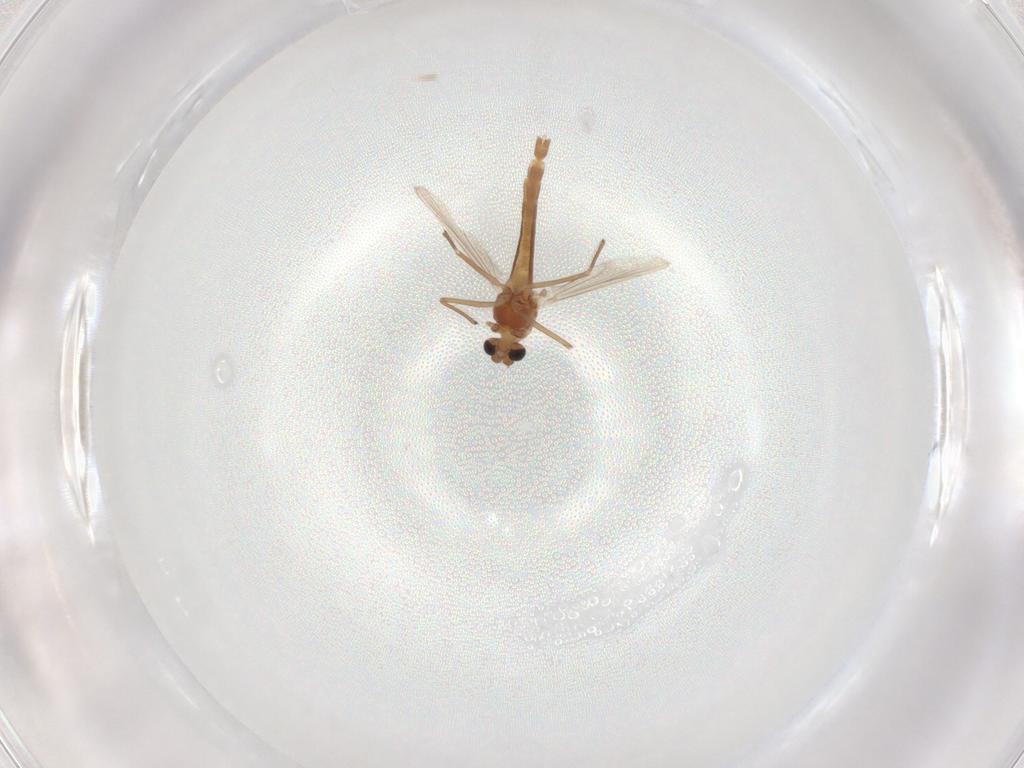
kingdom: Animalia
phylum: Arthropoda
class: Insecta
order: Diptera
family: Chironomidae
